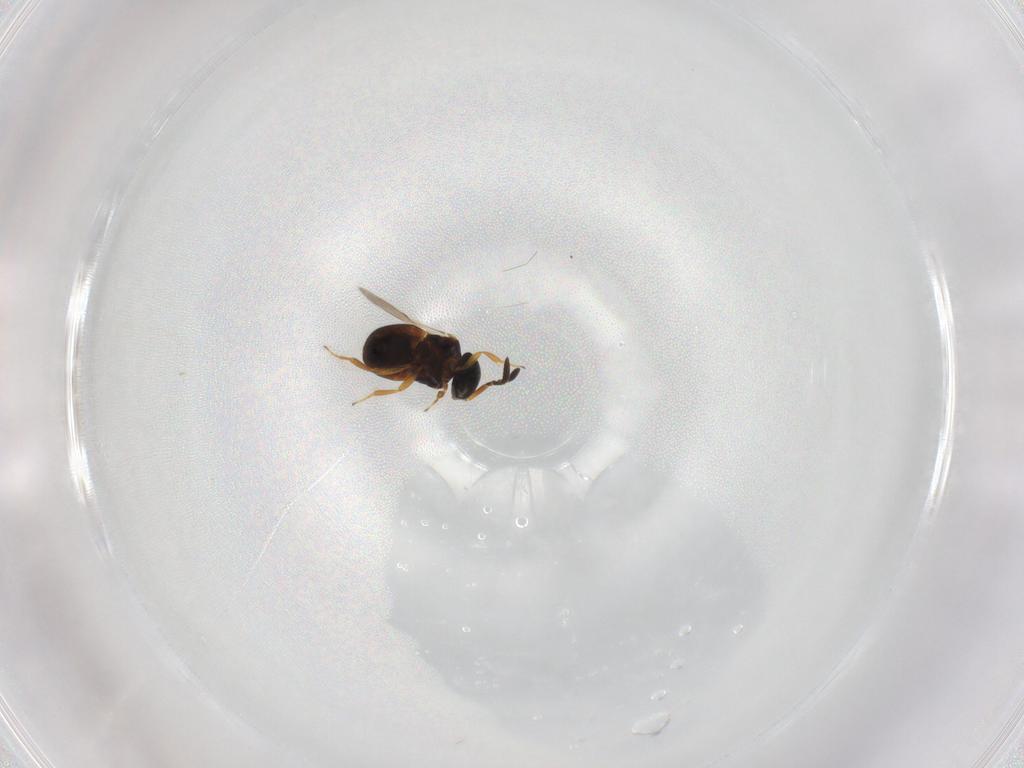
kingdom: Animalia
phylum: Arthropoda
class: Insecta
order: Hymenoptera
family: Scelionidae
